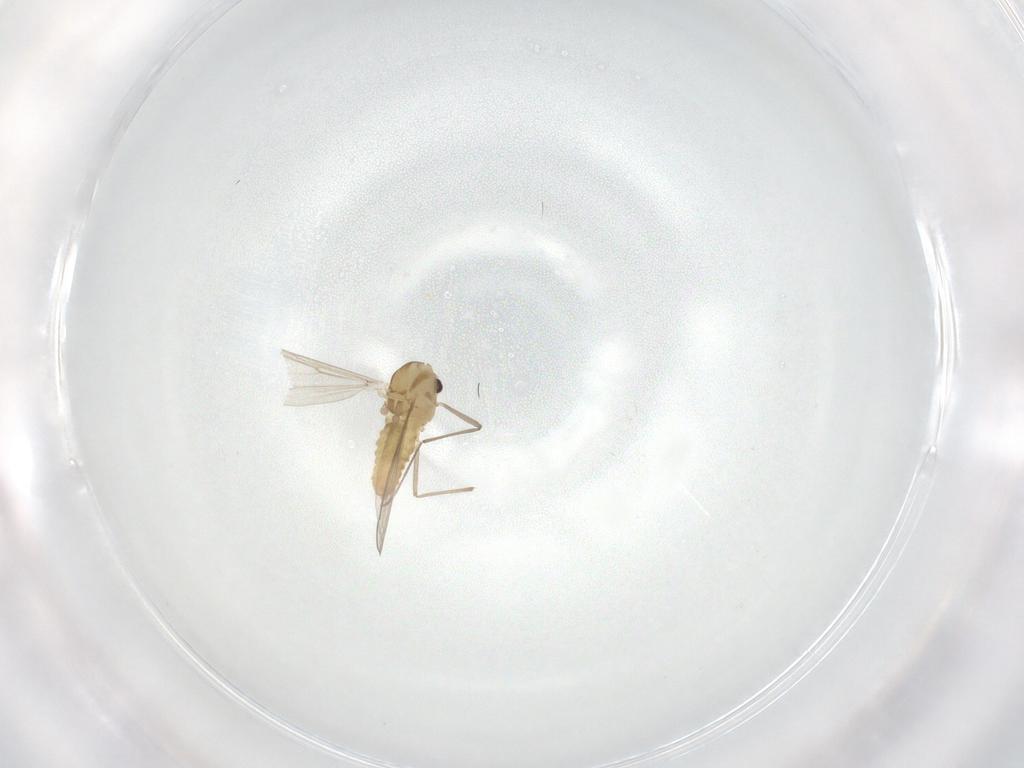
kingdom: Animalia
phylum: Arthropoda
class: Insecta
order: Diptera
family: Chironomidae
